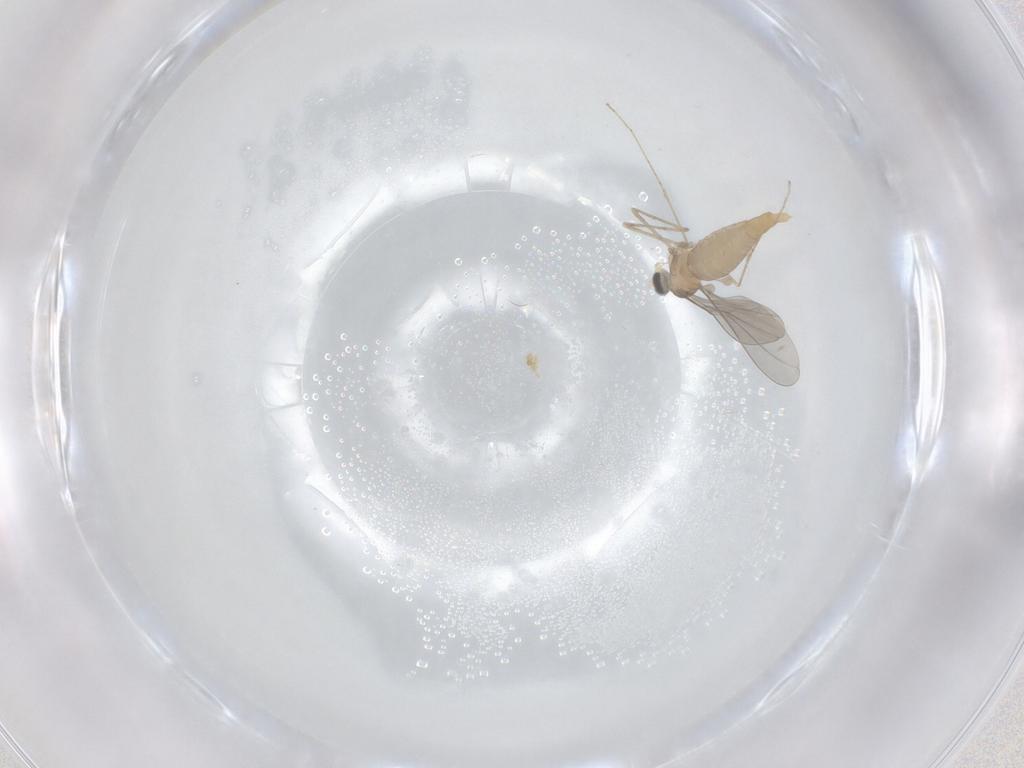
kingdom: Animalia
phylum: Arthropoda
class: Insecta
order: Diptera
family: Cecidomyiidae
